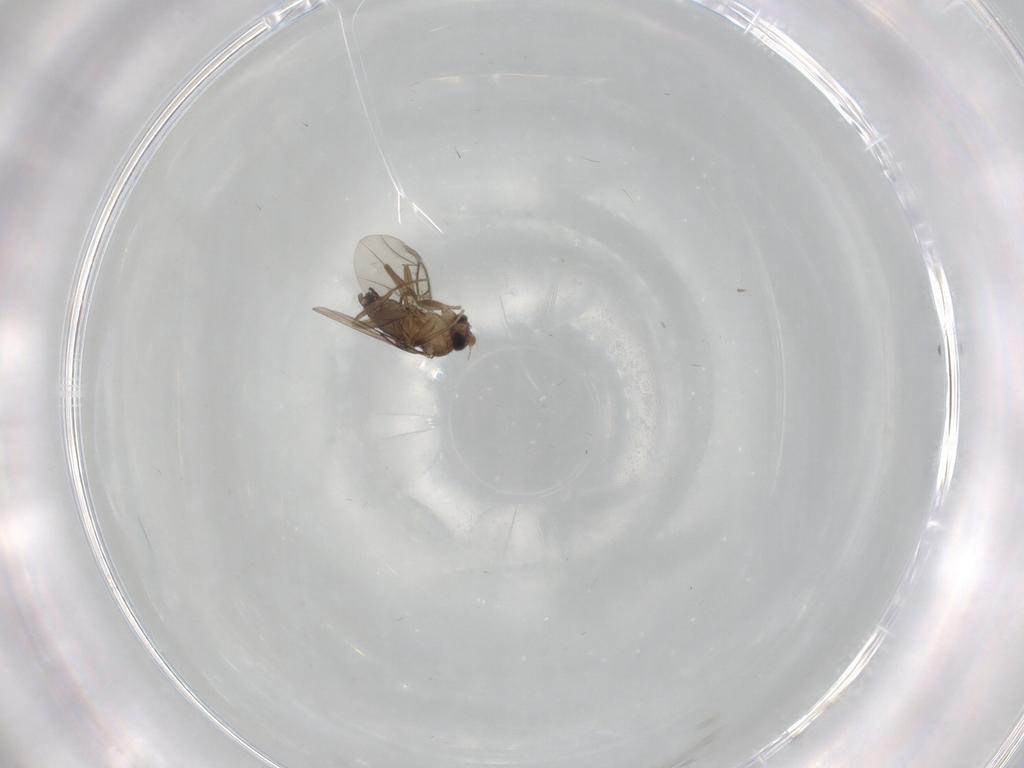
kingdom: Animalia
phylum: Arthropoda
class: Insecta
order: Diptera
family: Phoridae
